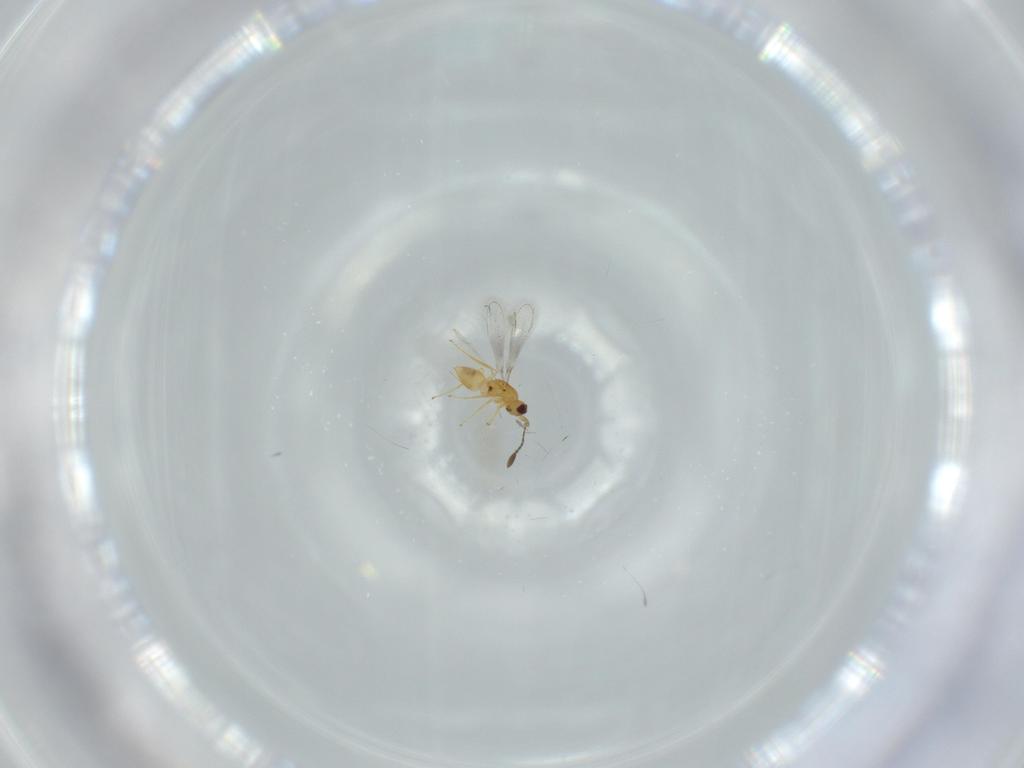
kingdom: Animalia
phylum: Arthropoda
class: Insecta
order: Hymenoptera
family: Mymaridae
